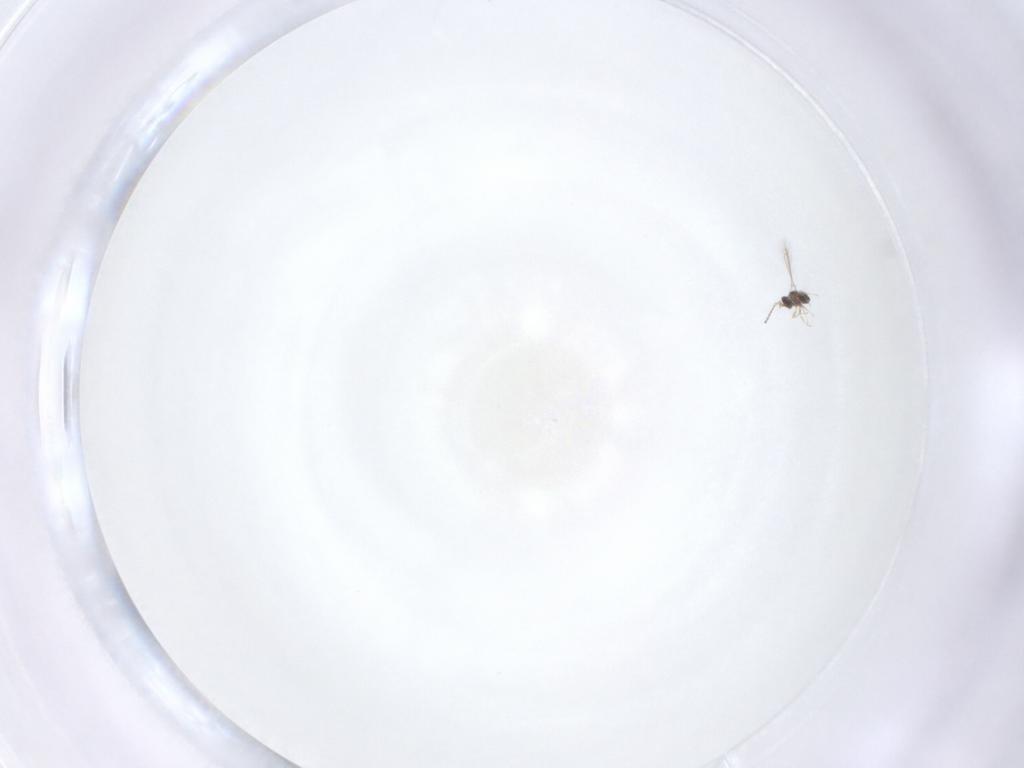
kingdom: Animalia
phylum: Arthropoda
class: Insecta
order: Hymenoptera
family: Mymaridae
